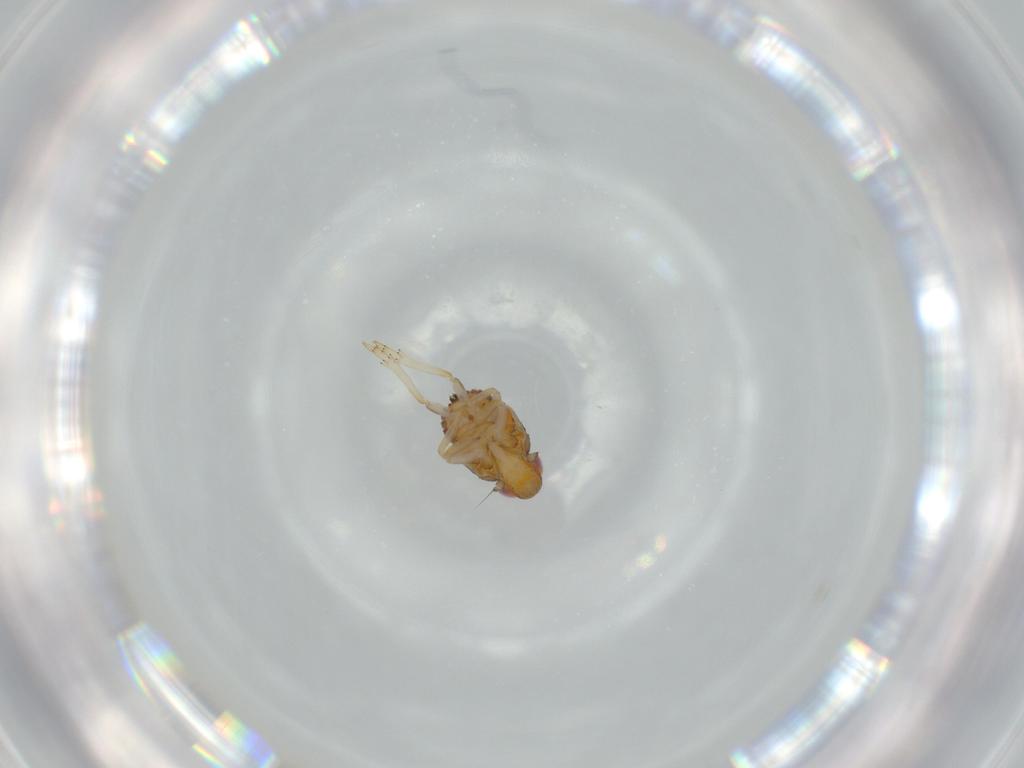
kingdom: Animalia
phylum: Arthropoda
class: Insecta
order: Hemiptera
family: Issidae
